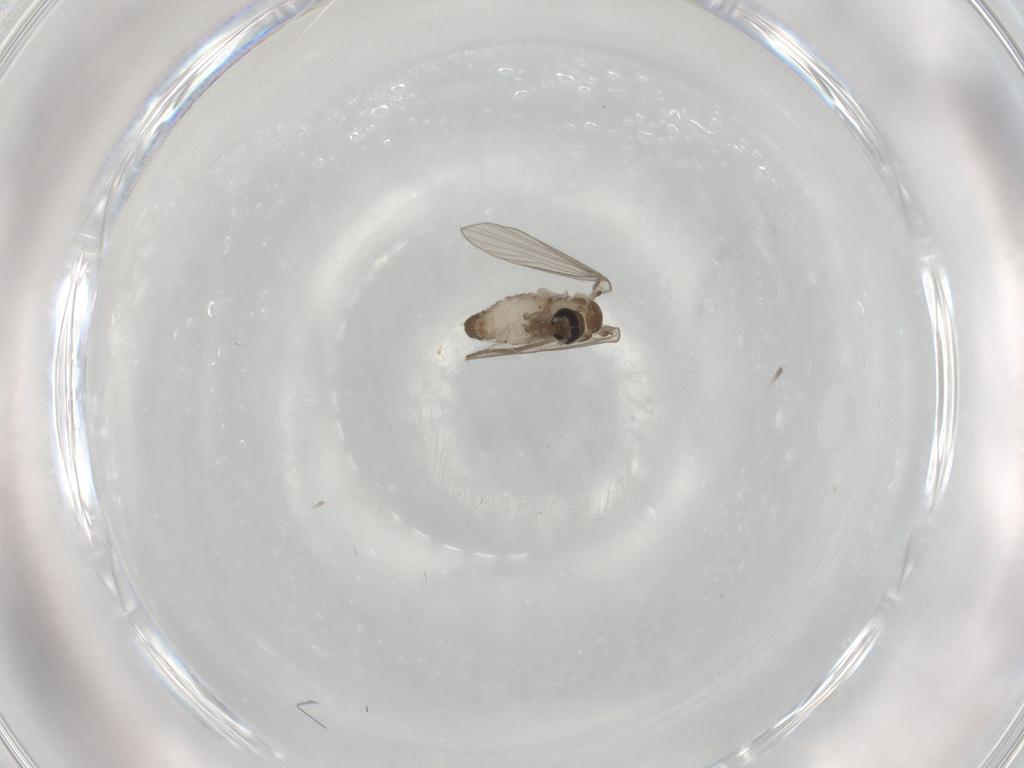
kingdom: Animalia
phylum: Arthropoda
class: Insecta
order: Diptera
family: Psychodidae
